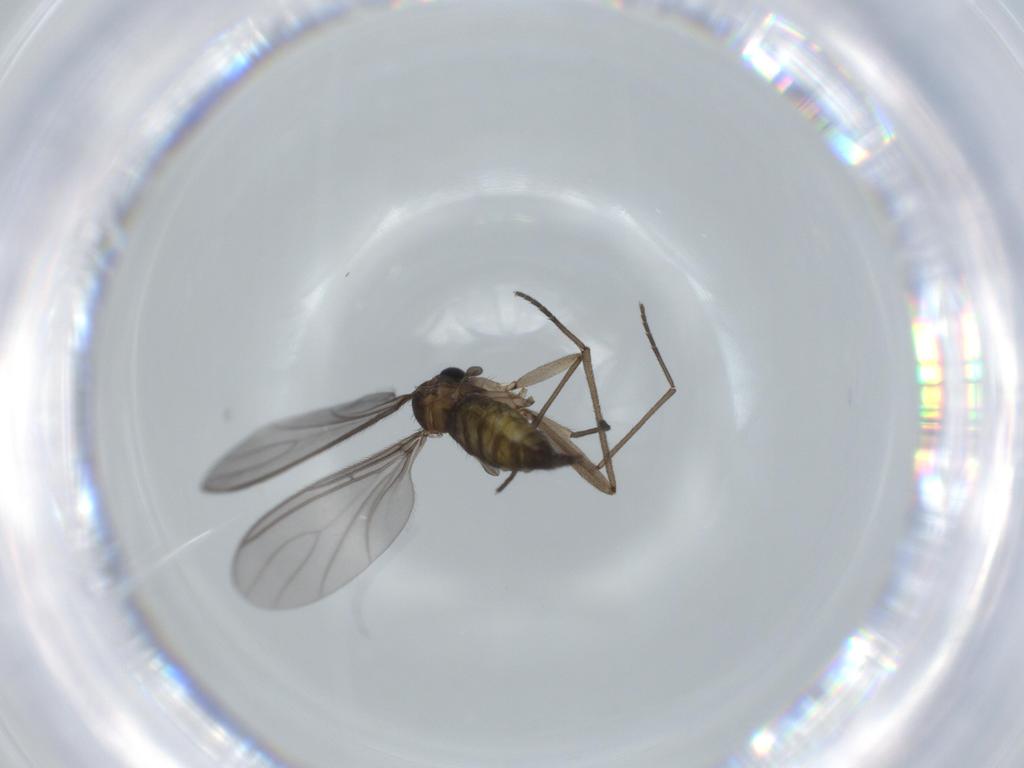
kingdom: Animalia
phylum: Arthropoda
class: Insecta
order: Diptera
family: Sciaridae
